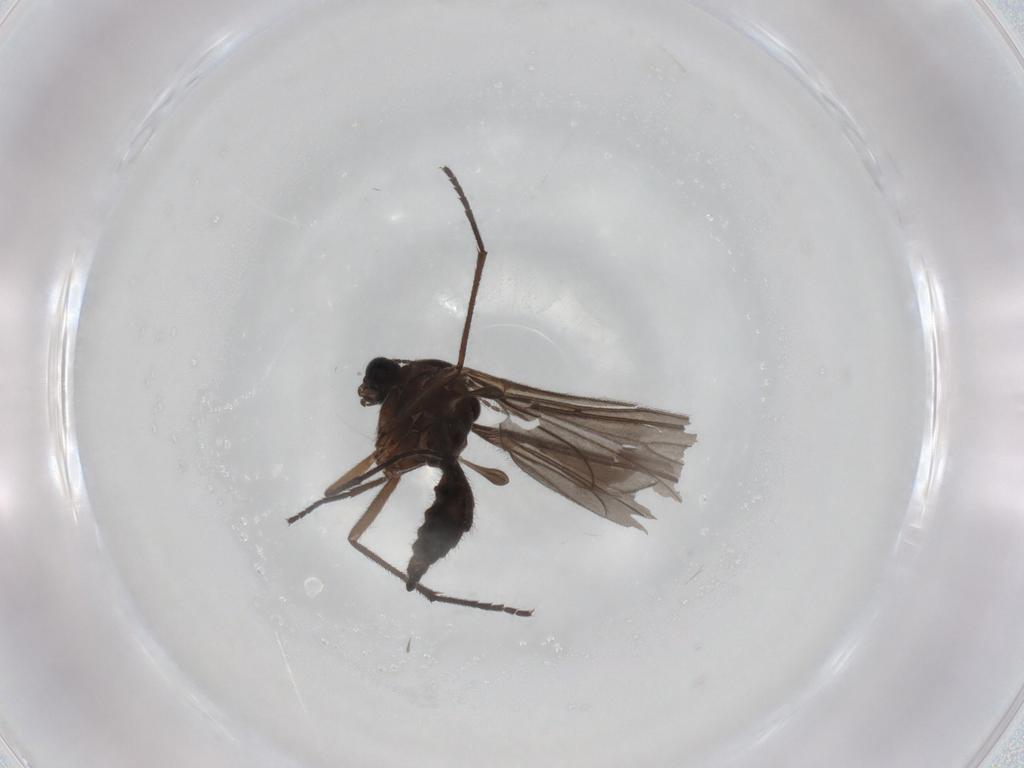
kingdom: Animalia
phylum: Arthropoda
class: Insecta
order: Diptera
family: Sciaridae
